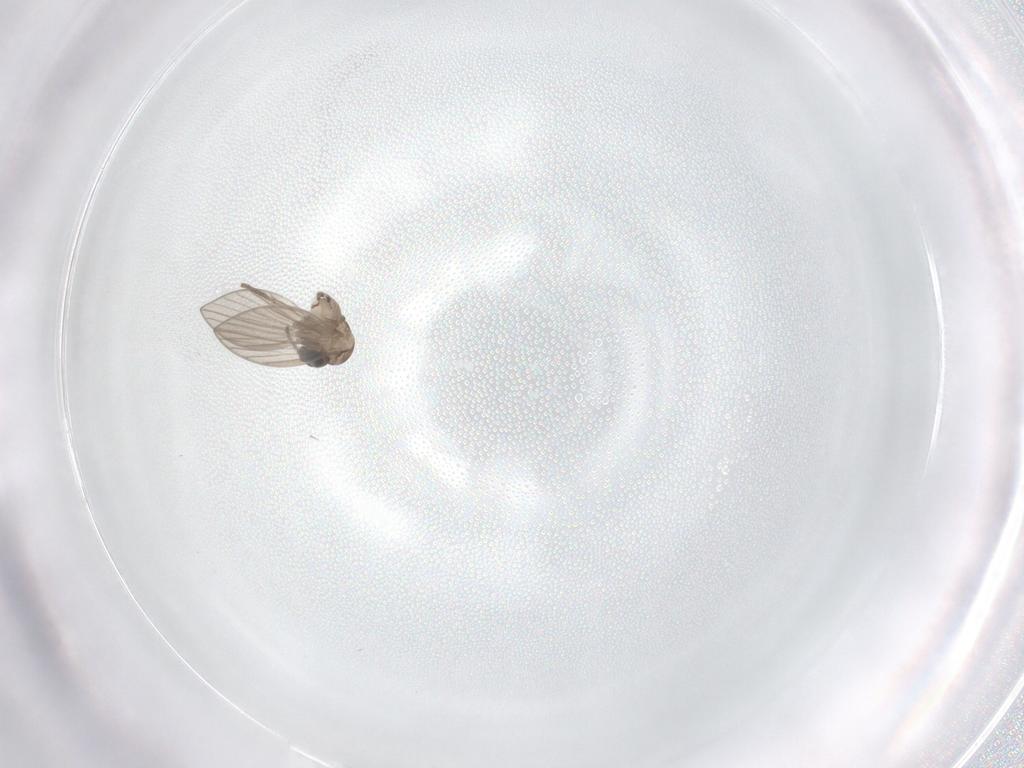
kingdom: Animalia
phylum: Arthropoda
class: Insecta
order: Diptera
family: Psychodidae
